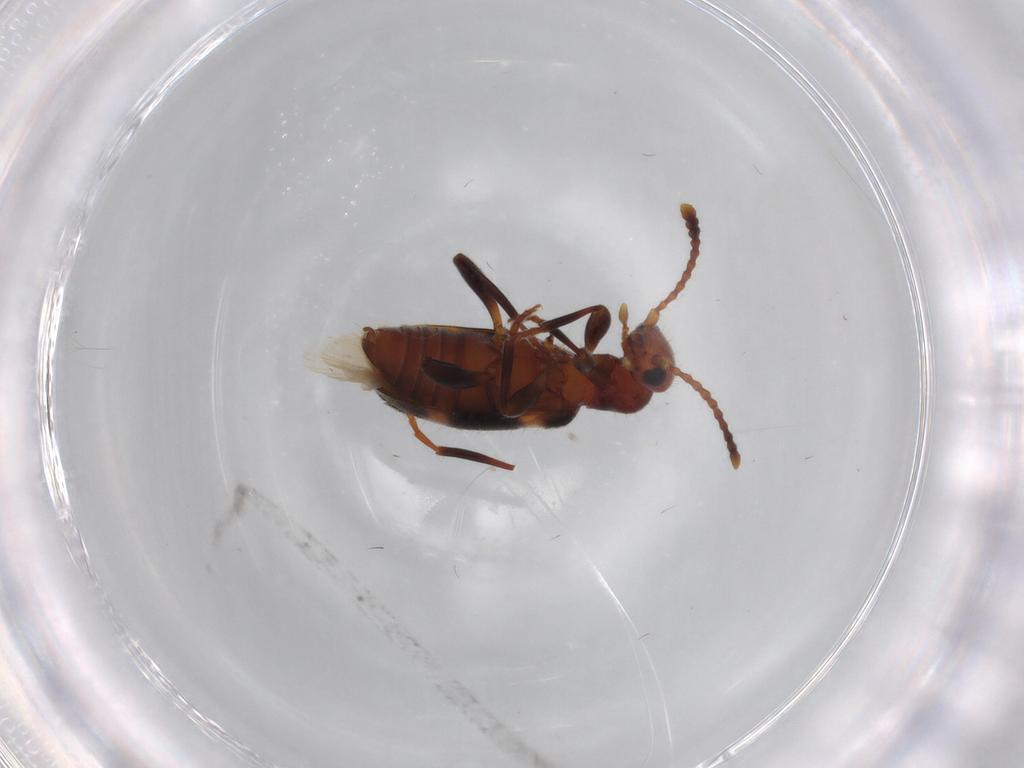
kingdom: Animalia
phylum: Arthropoda
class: Insecta
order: Coleoptera
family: Anthicidae
